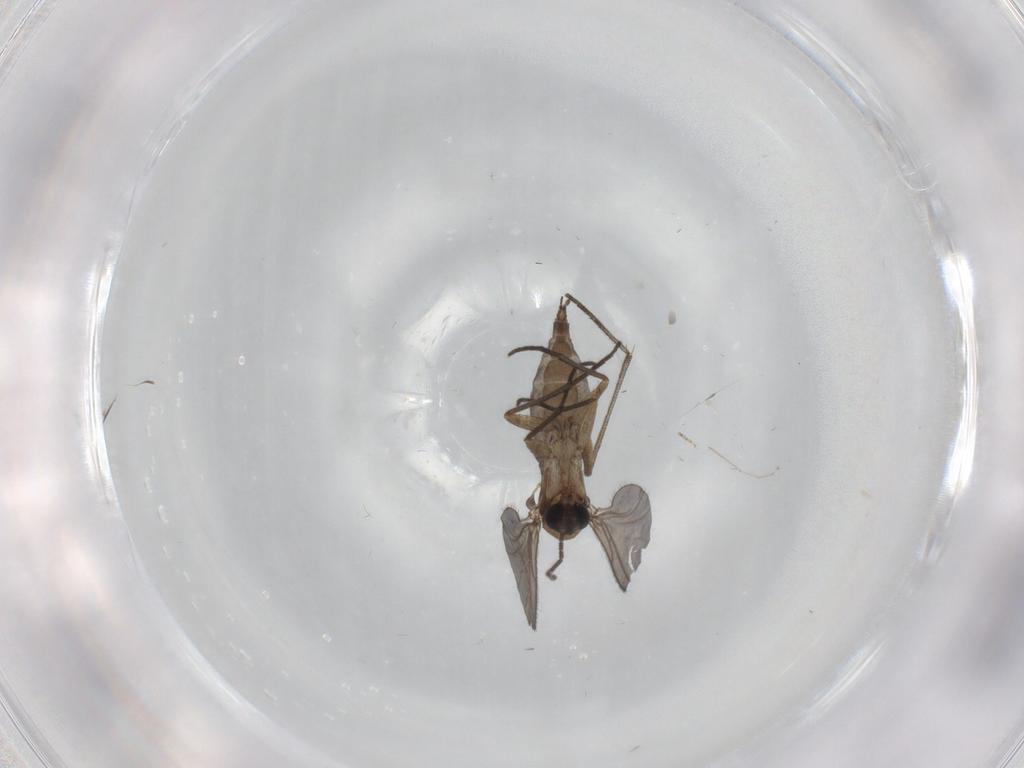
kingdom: Animalia
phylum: Arthropoda
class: Insecta
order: Diptera
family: Sciaridae
